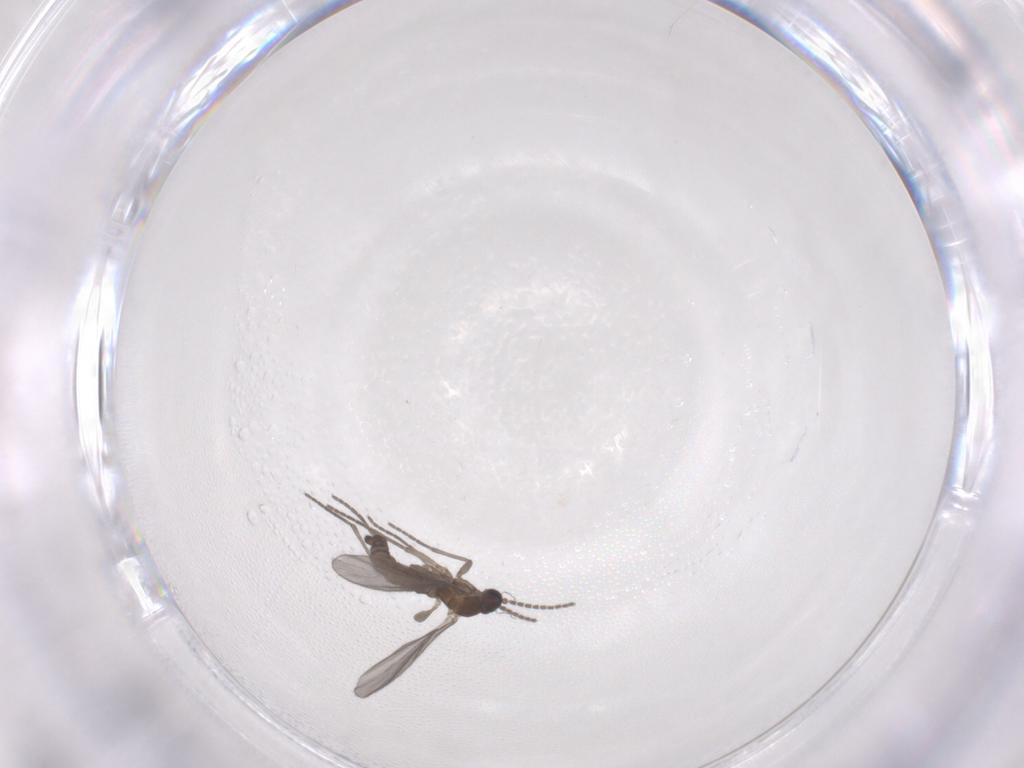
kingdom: Animalia
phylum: Arthropoda
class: Insecta
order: Diptera
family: Sciaridae
